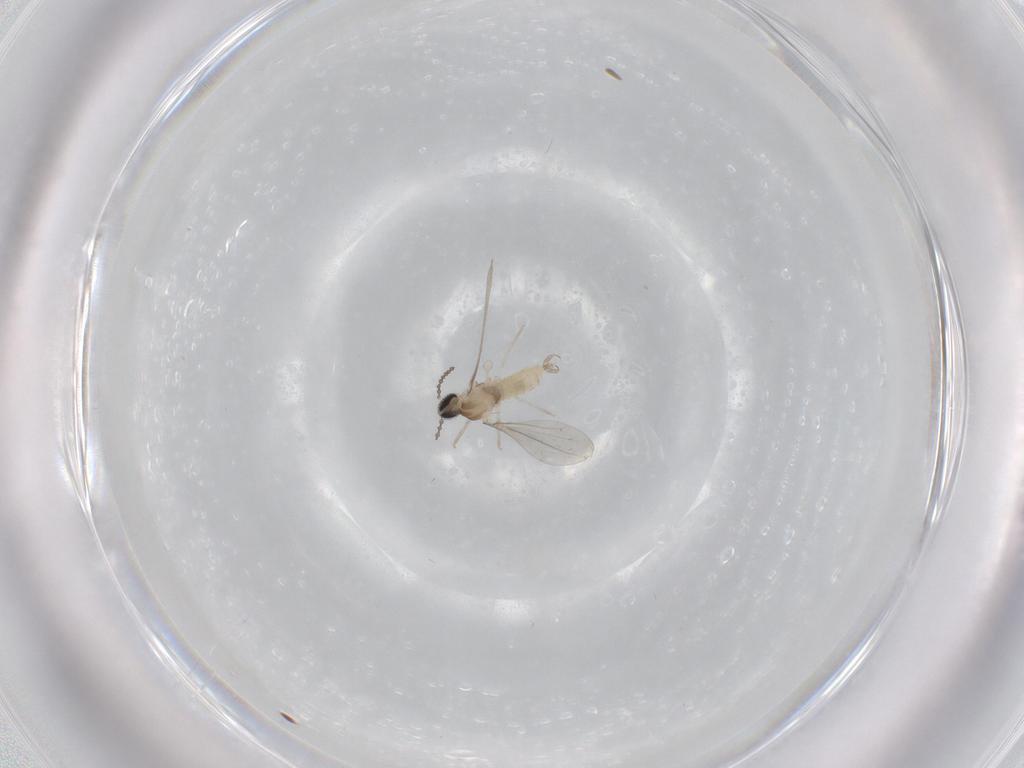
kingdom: Animalia
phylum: Arthropoda
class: Insecta
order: Diptera
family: Cecidomyiidae
